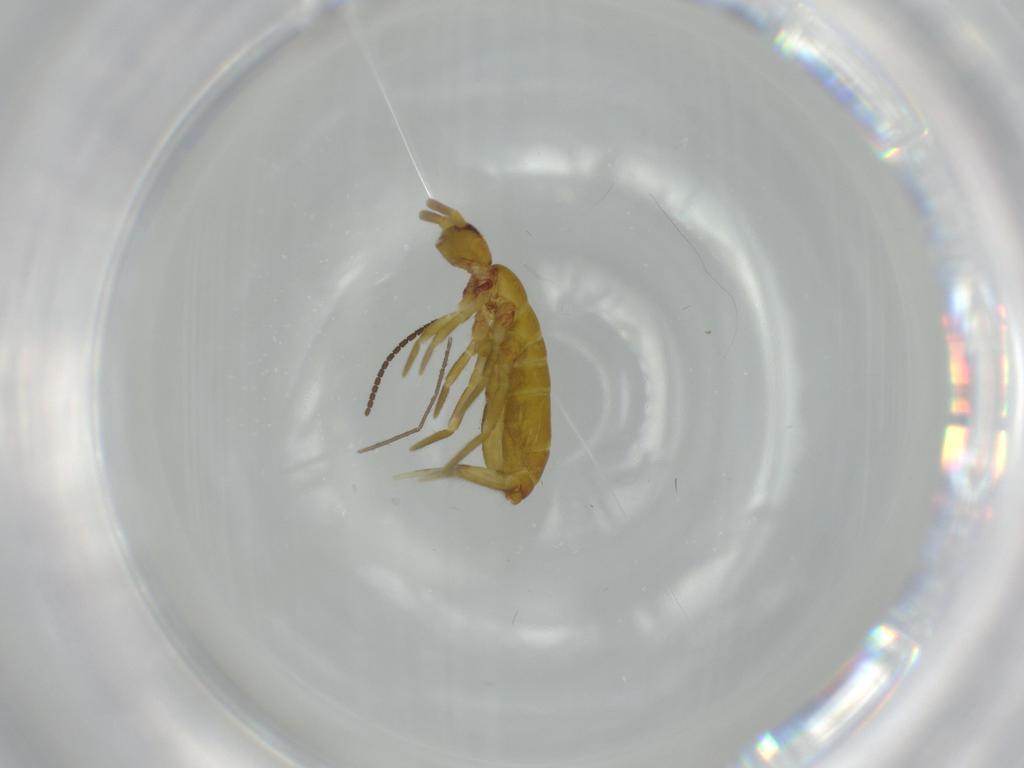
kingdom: Animalia
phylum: Arthropoda
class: Collembola
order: Entomobryomorpha
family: Tomoceridae
